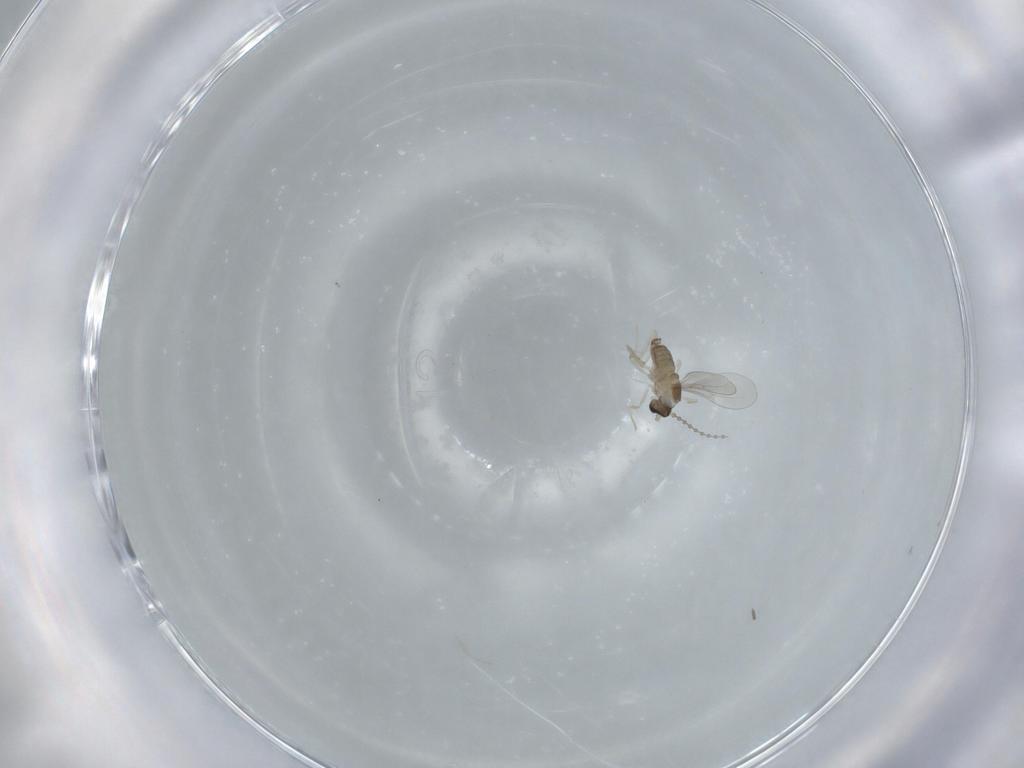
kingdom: Animalia
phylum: Arthropoda
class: Insecta
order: Diptera
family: Cecidomyiidae
